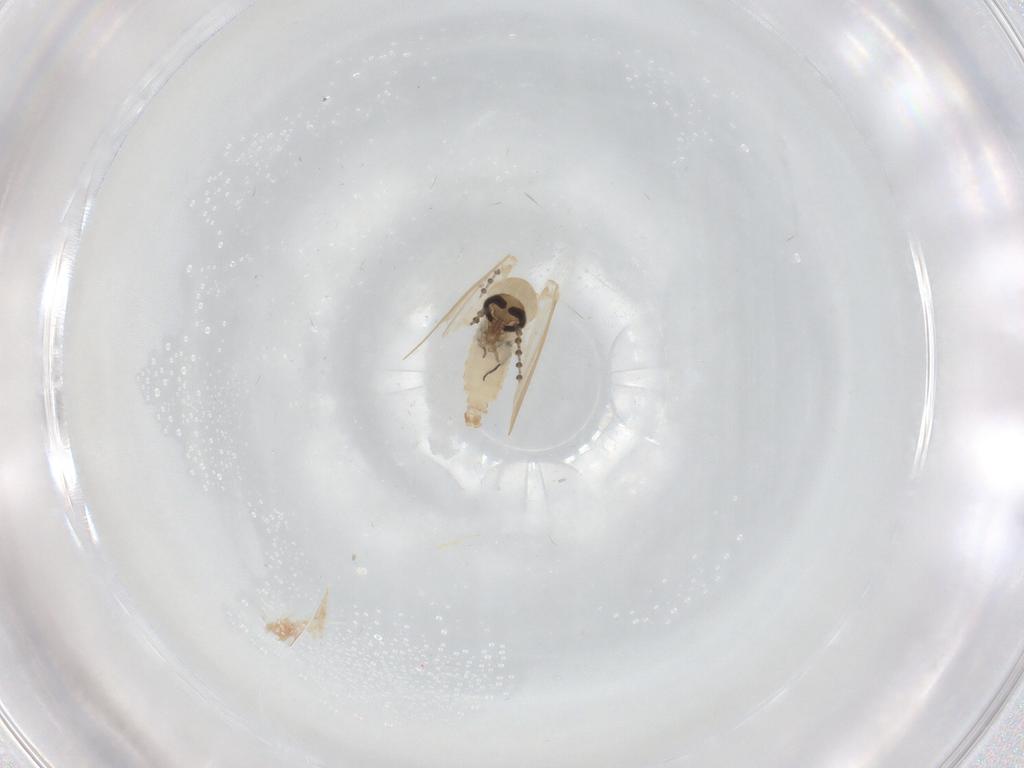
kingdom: Animalia
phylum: Arthropoda
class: Insecta
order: Diptera
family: Psychodidae
